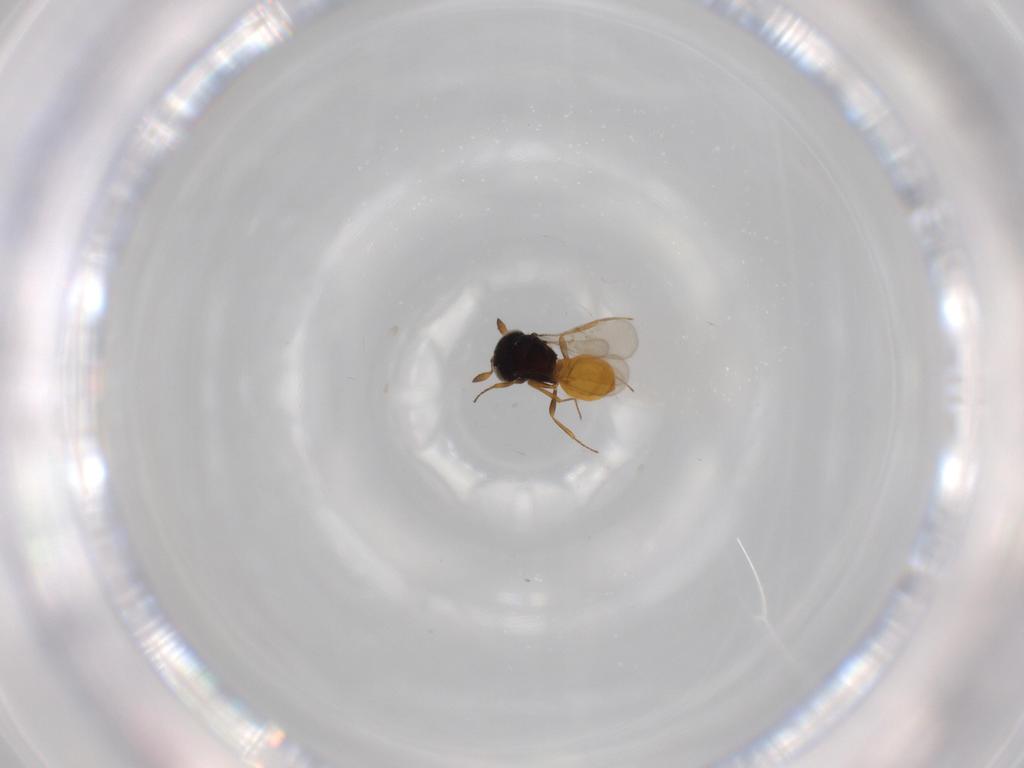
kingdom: Animalia
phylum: Arthropoda
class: Insecta
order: Hymenoptera
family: Scelionidae
